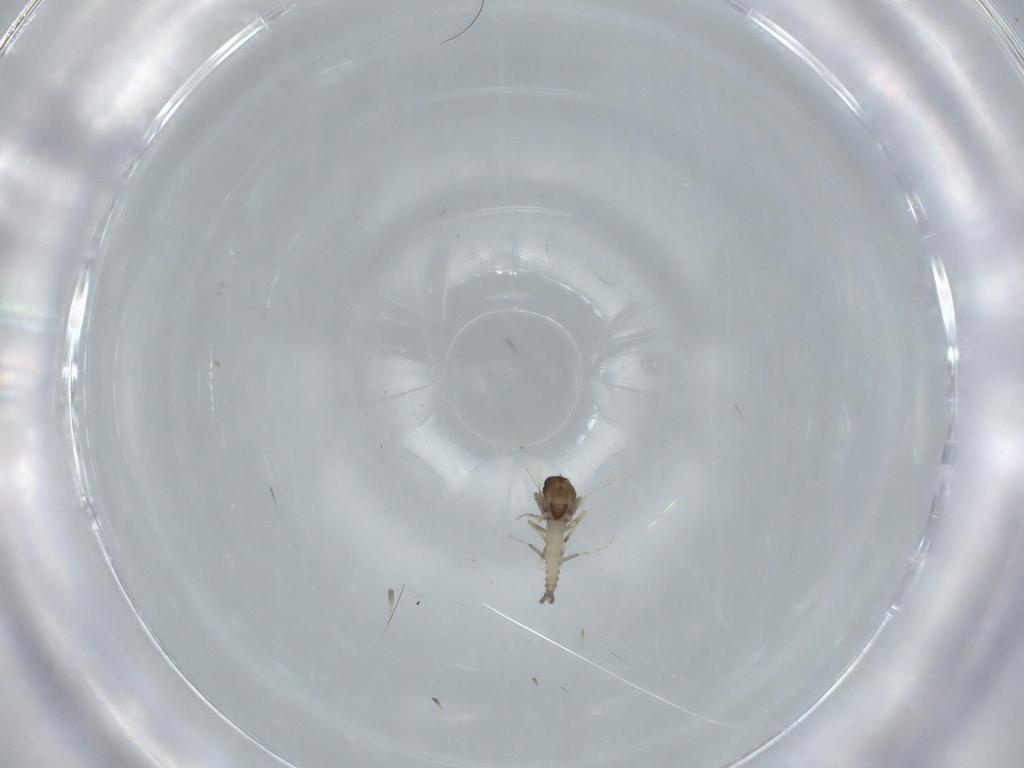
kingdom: Animalia
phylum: Arthropoda
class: Insecta
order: Diptera
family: Ceratopogonidae
